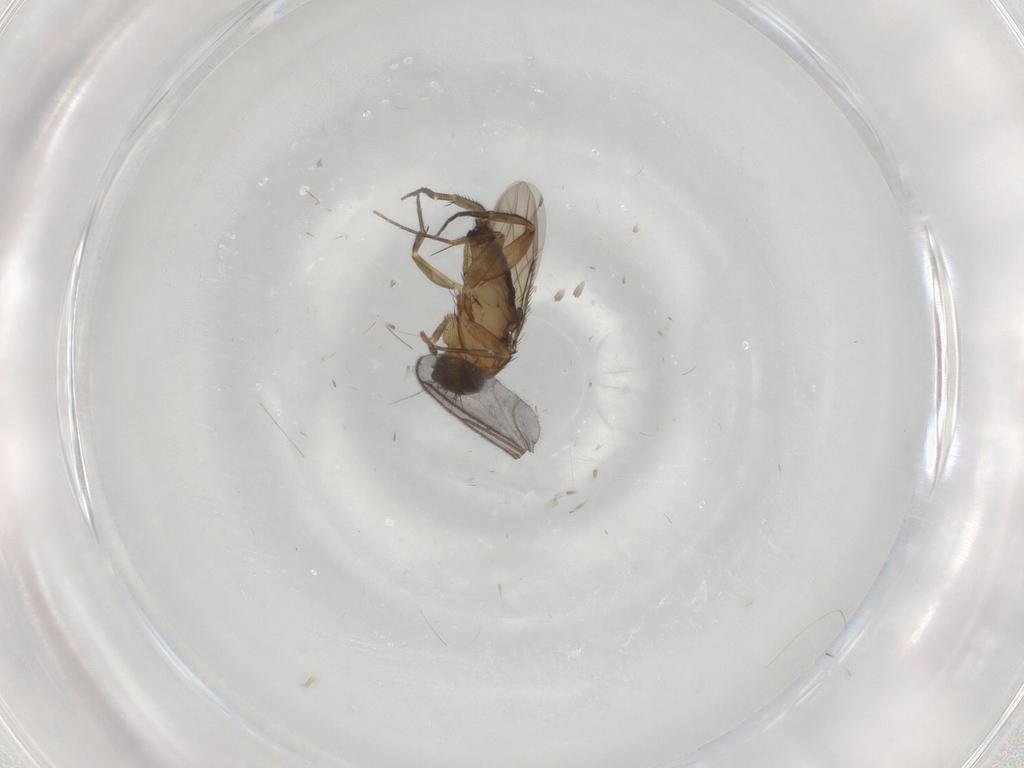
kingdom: Animalia
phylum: Arthropoda
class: Insecta
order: Diptera
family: Phoridae
